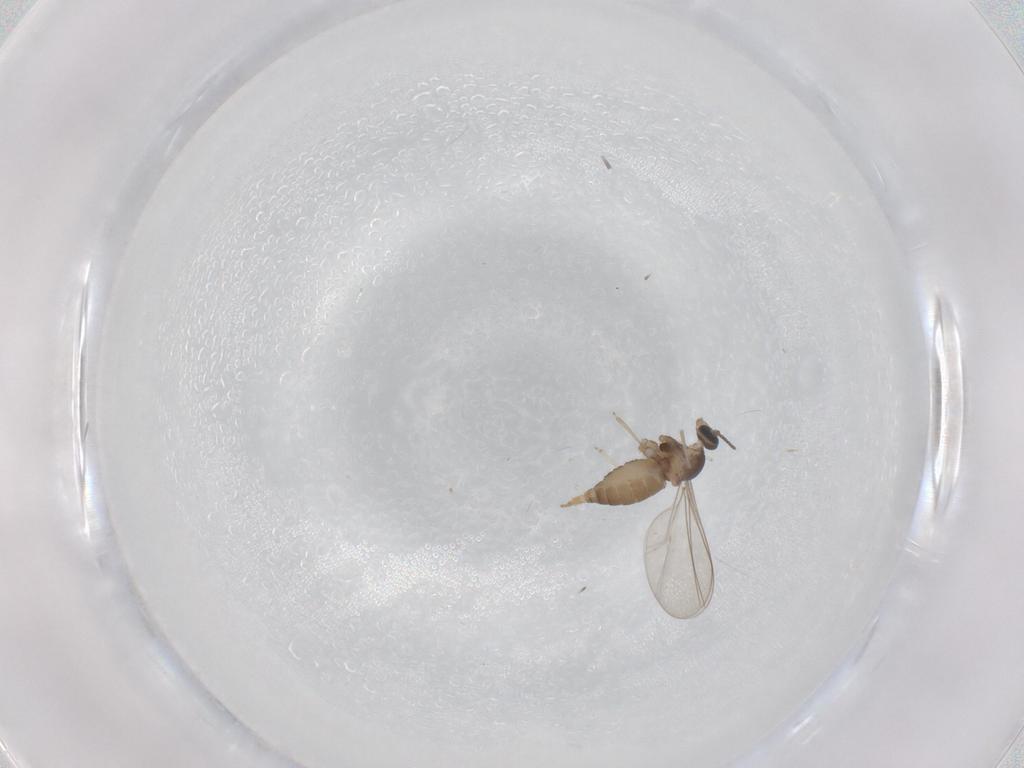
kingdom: Animalia
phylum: Arthropoda
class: Insecta
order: Diptera
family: Cecidomyiidae
